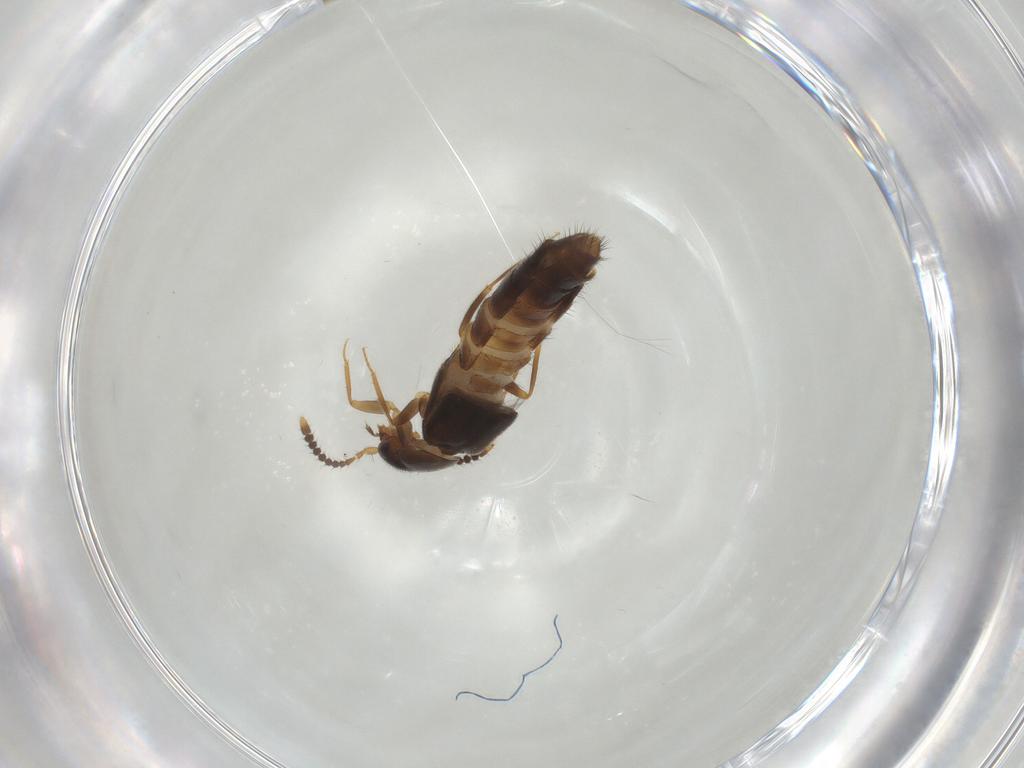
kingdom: Animalia
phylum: Arthropoda
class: Insecta
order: Coleoptera
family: Staphylinidae
